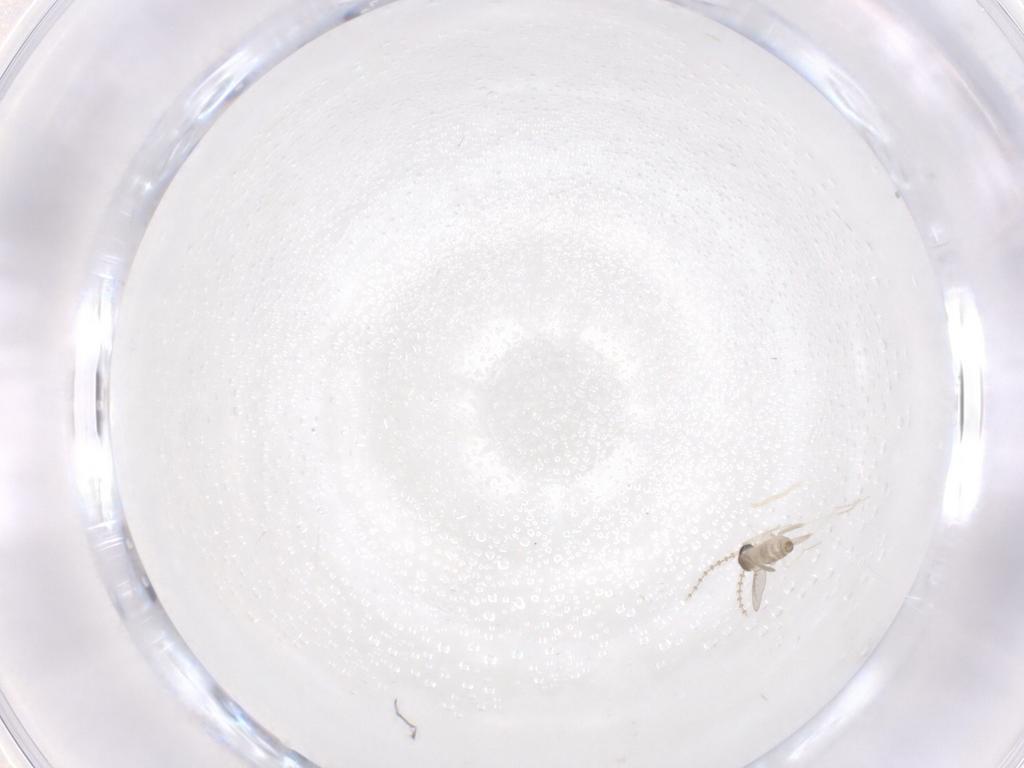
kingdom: Animalia
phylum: Arthropoda
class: Insecta
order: Diptera
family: Cecidomyiidae
